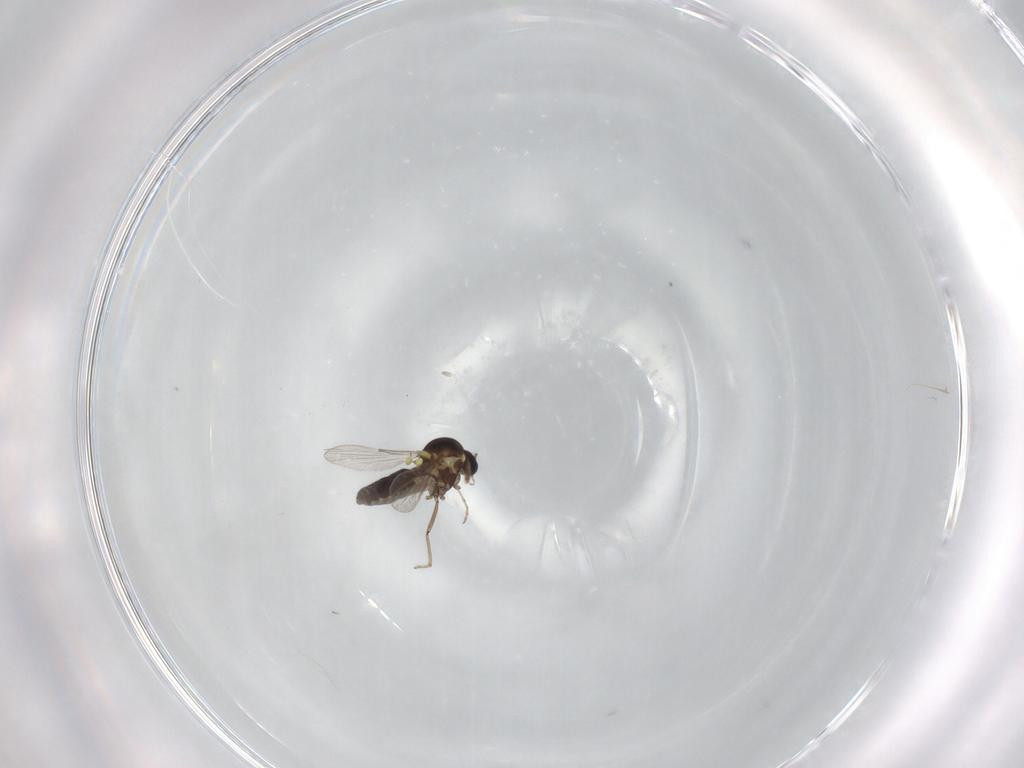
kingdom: Animalia
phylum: Arthropoda
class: Insecta
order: Diptera
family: Ceratopogonidae
